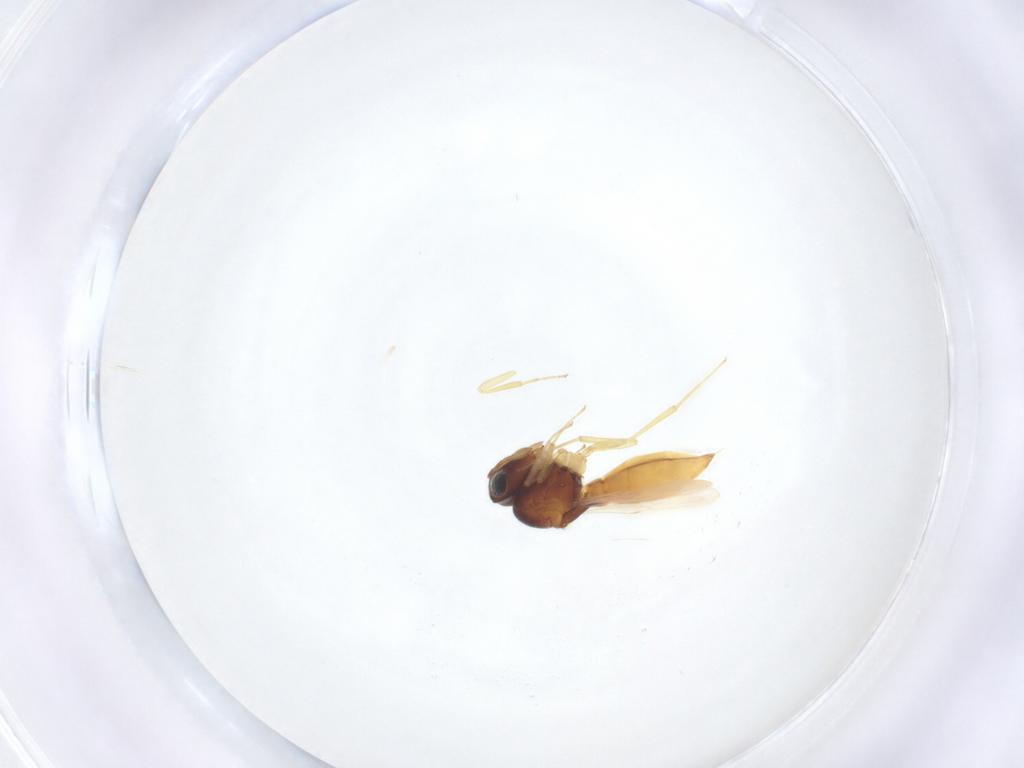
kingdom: Animalia
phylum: Arthropoda
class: Insecta
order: Hymenoptera
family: Scelionidae
